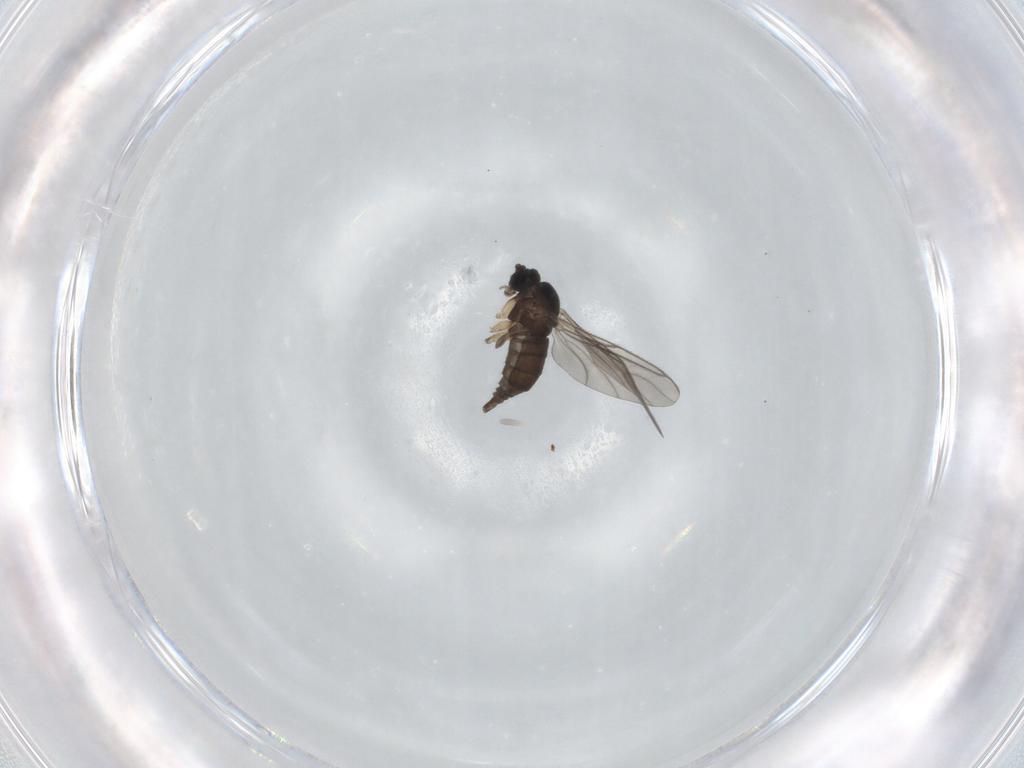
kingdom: Animalia
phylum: Arthropoda
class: Insecta
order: Diptera
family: Sciaridae
